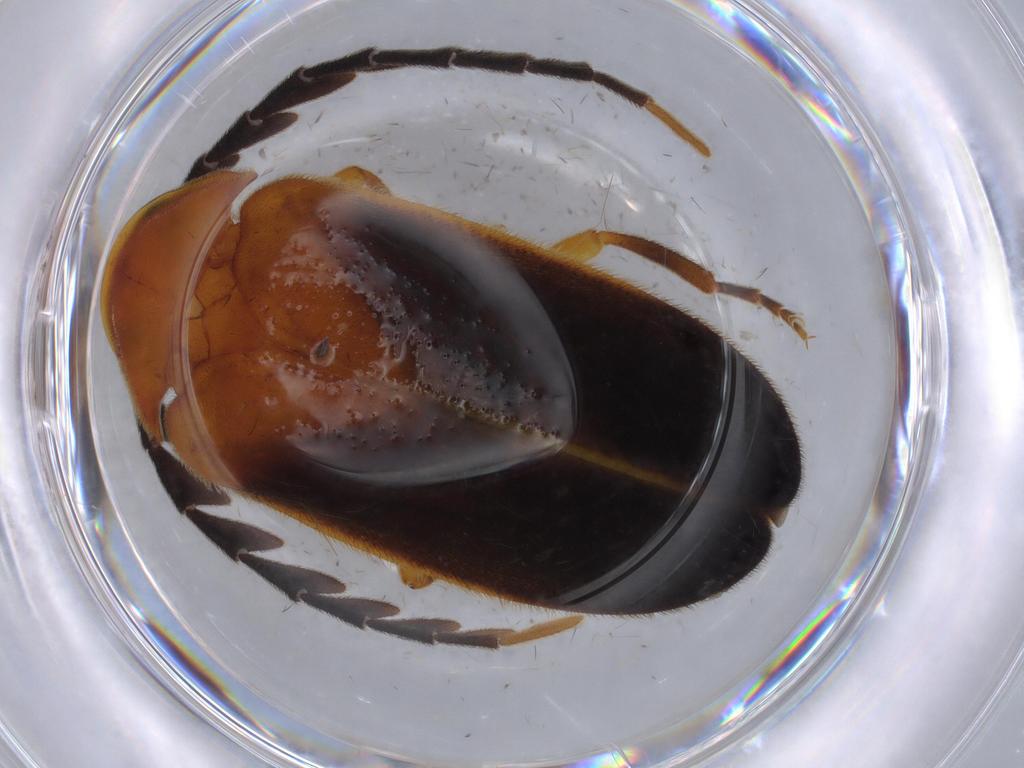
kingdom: Animalia
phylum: Arthropoda
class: Insecta
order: Coleoptera
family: Lampyridae
